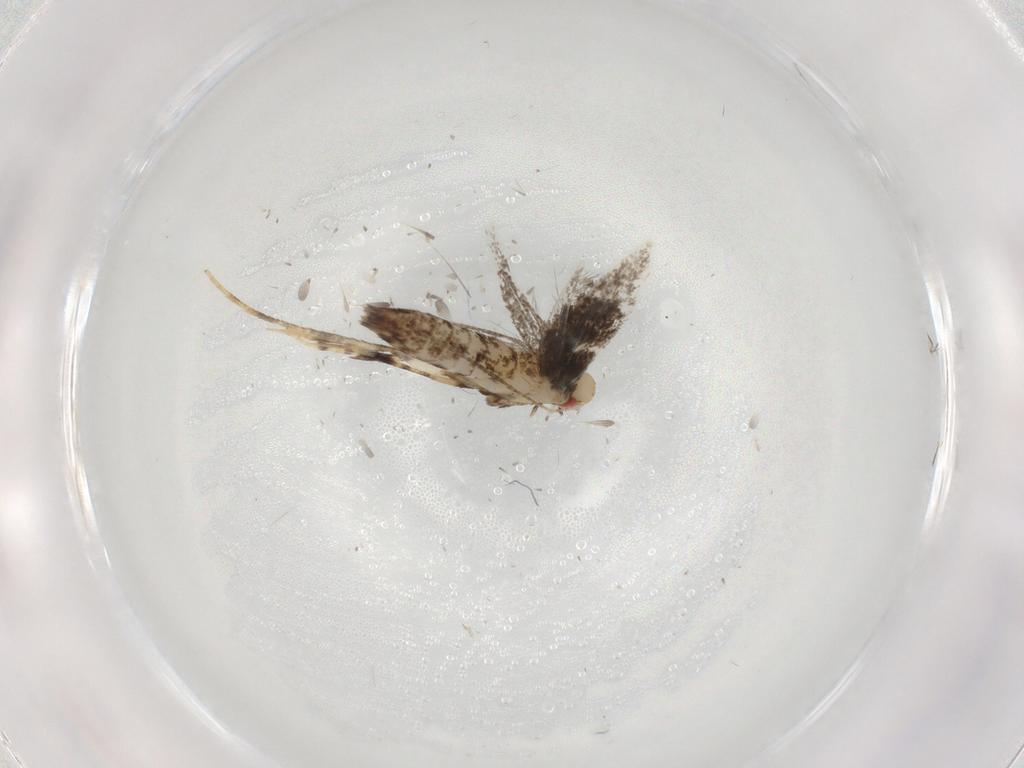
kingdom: Animalia
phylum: Arthropoda
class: Insecta
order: Lepidoptera
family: Gracillariidae
